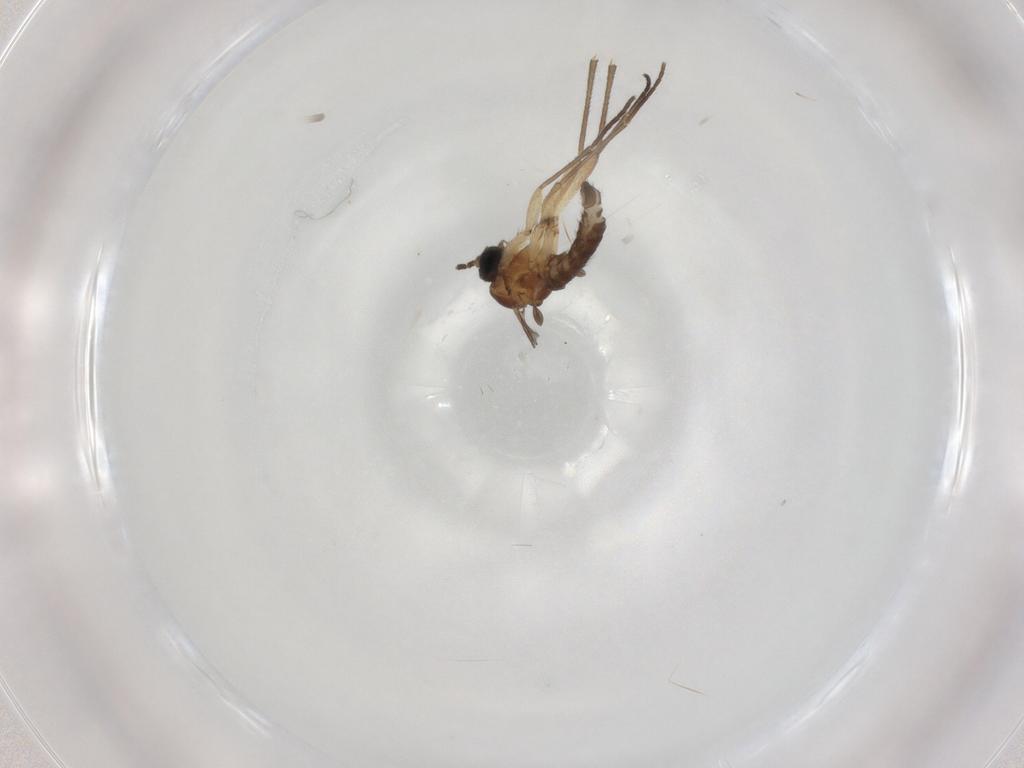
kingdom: Animalia
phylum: Arthropoda
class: Insecta
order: Diptera
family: Sciaridae
